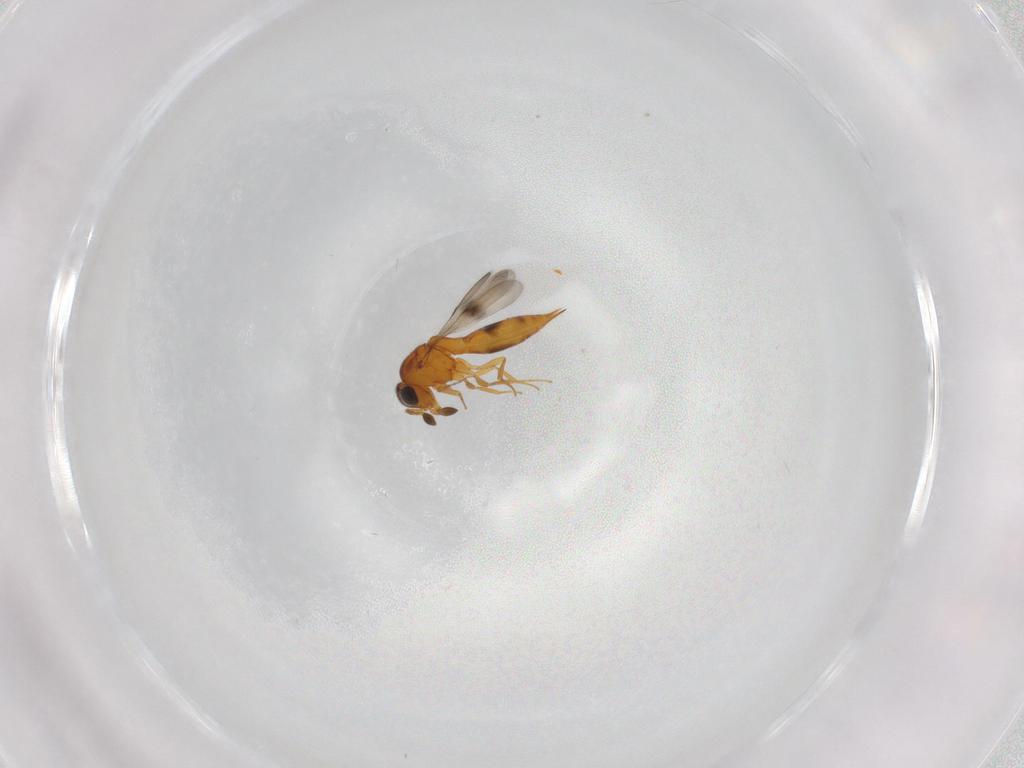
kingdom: Animalia
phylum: Arthropoda
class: Insecta
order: Hymenoptera
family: Scelionidae
